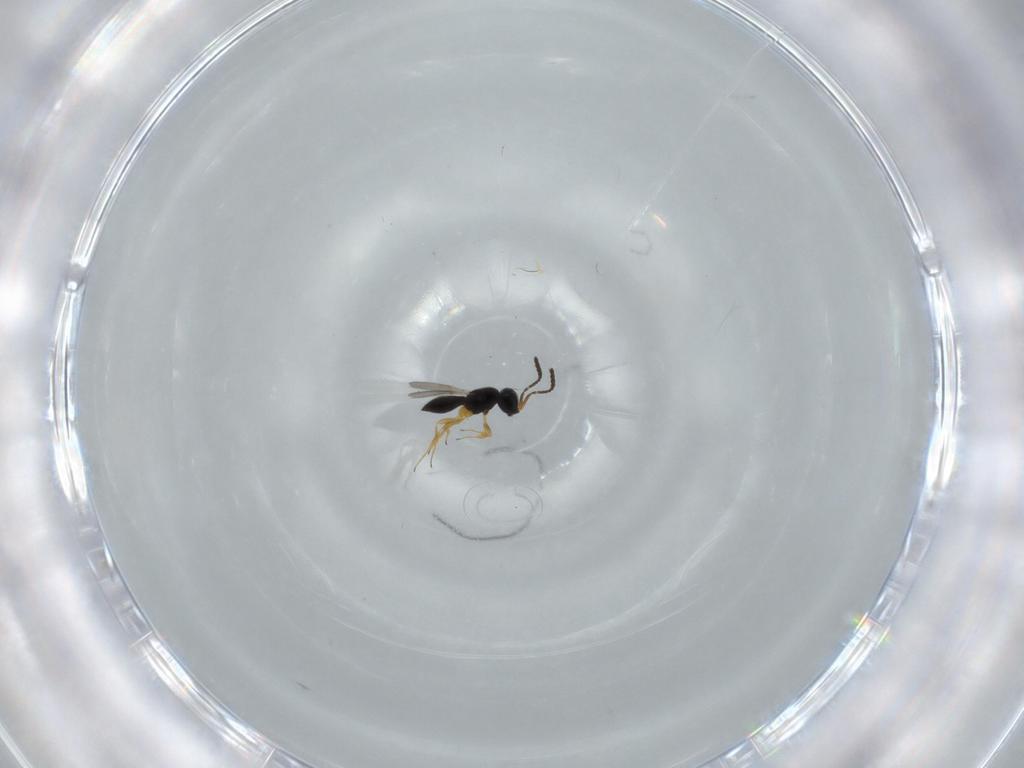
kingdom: Animalia
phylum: Arthropoda
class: Insecta
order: Hymenoptera
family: Scelionidae
